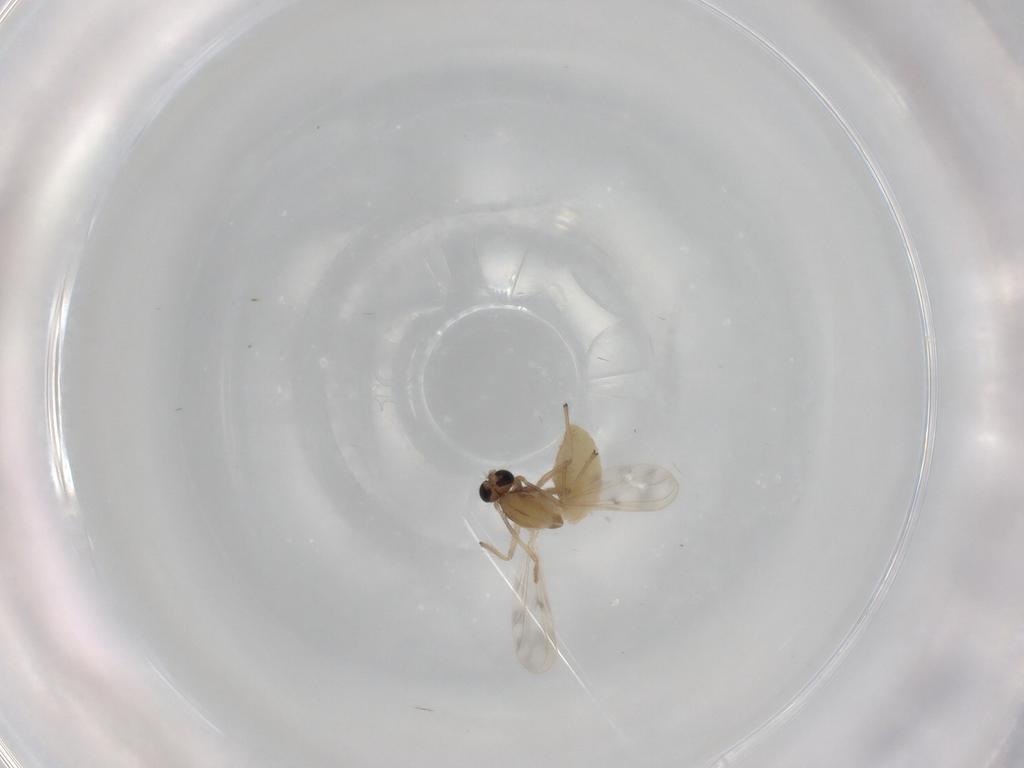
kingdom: Animalia
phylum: Arthropoda
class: Insecta
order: Diptera
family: Chironomidae
